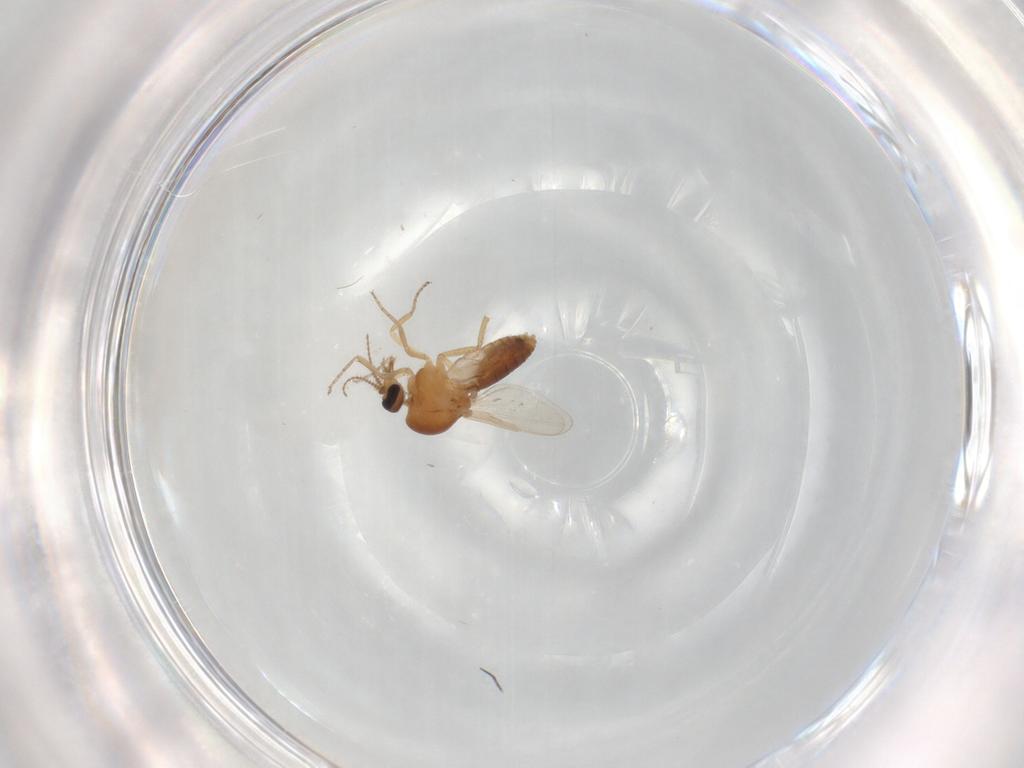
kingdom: Animalia
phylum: Arthropoda
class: Insecta
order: Diptera
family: Ceratopogonidae
